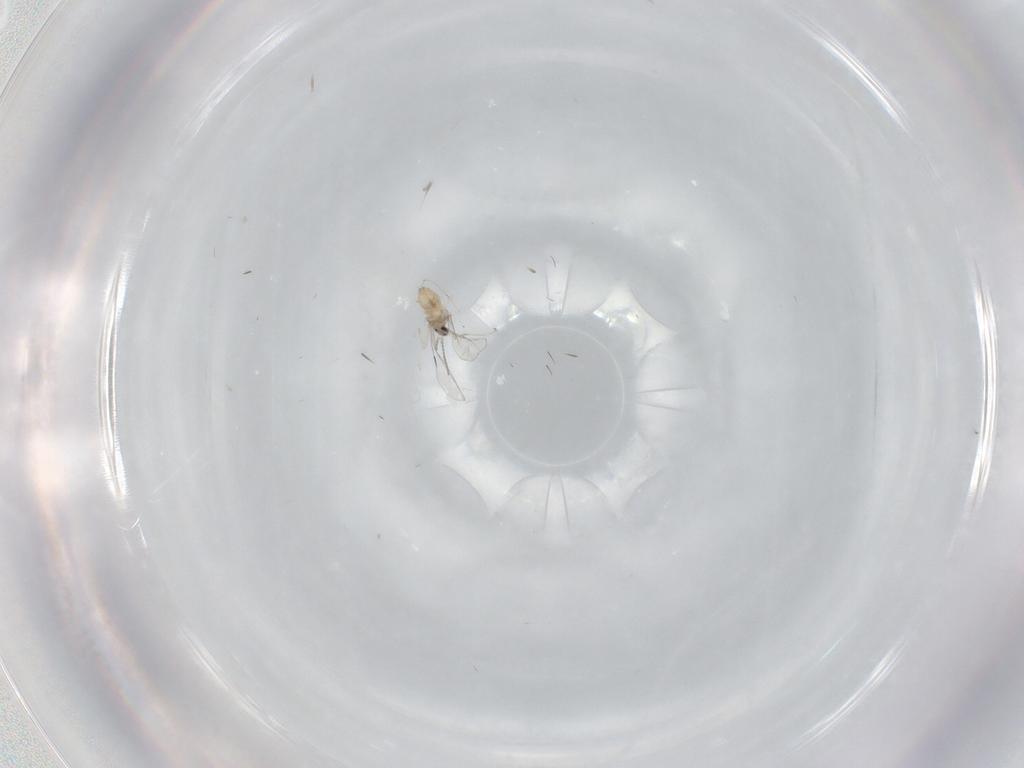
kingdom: Animalia
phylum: Arthropoda
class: Insecta
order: Diptera
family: Cecidomyiidae
